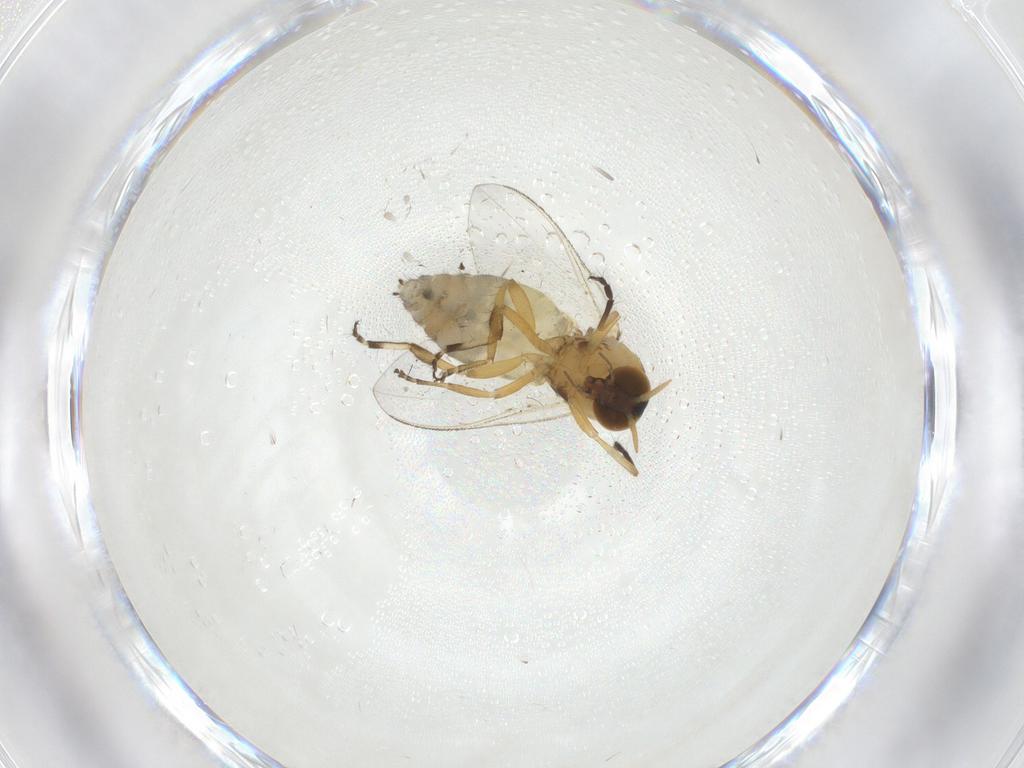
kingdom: Animalia
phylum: Arthropoda
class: Insecta
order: Diptera
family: Simuliidae
